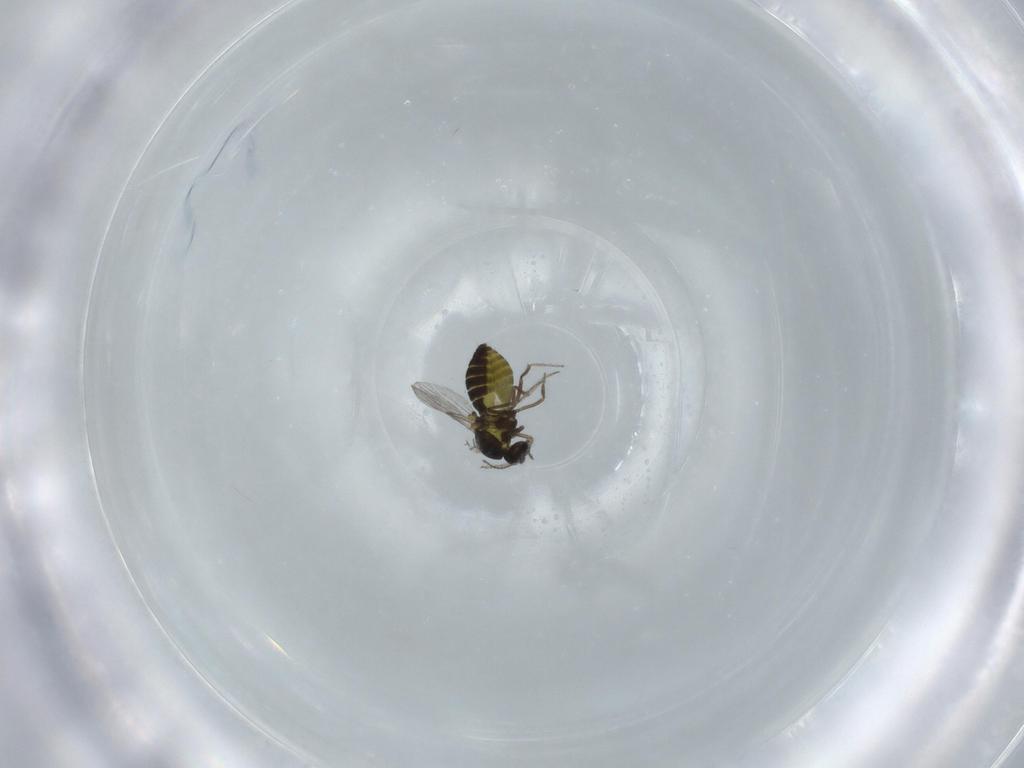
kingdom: Animalia
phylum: Arthropoda
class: Insecta
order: Diptera
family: Ceratopogonidae
